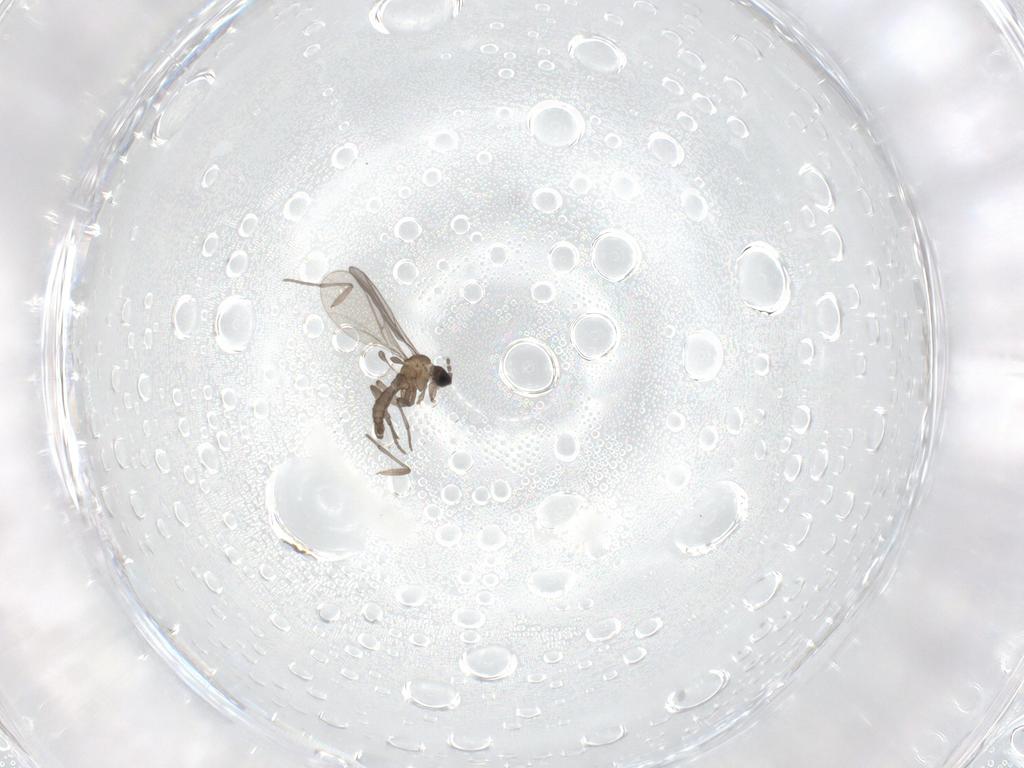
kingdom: Animalia
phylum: Arthropoda
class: Insecta
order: Diptera
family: Sciaridae
